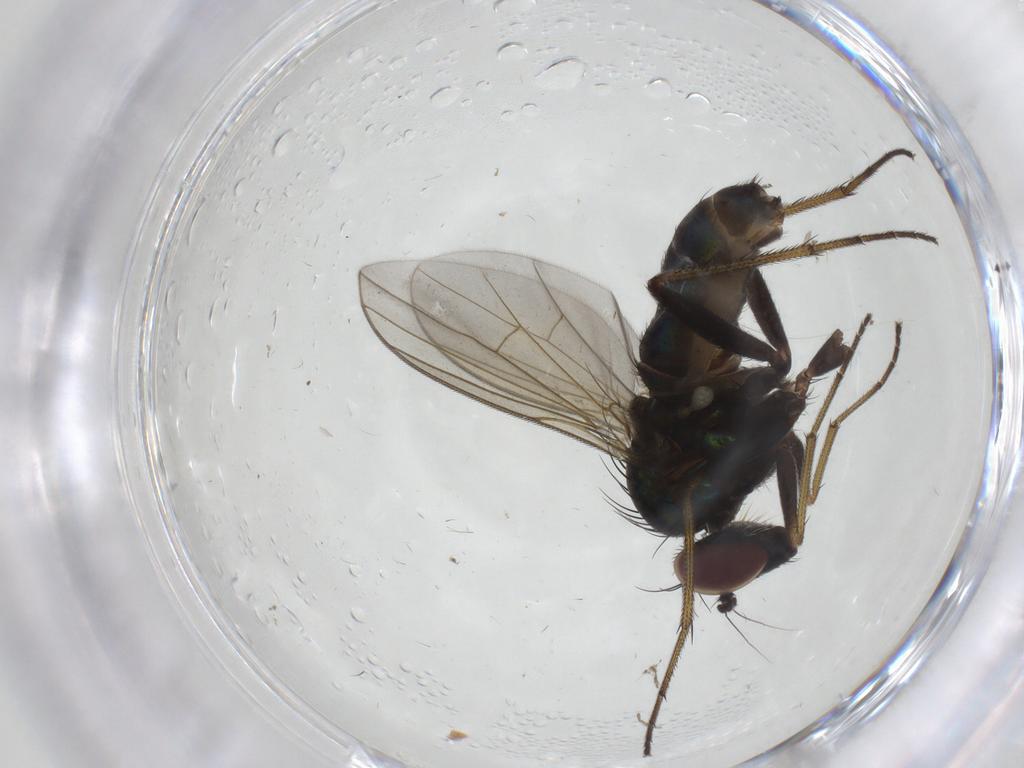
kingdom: Animalia
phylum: Arthropoda
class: Insecta
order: Diptera
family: Dolichopodidae
